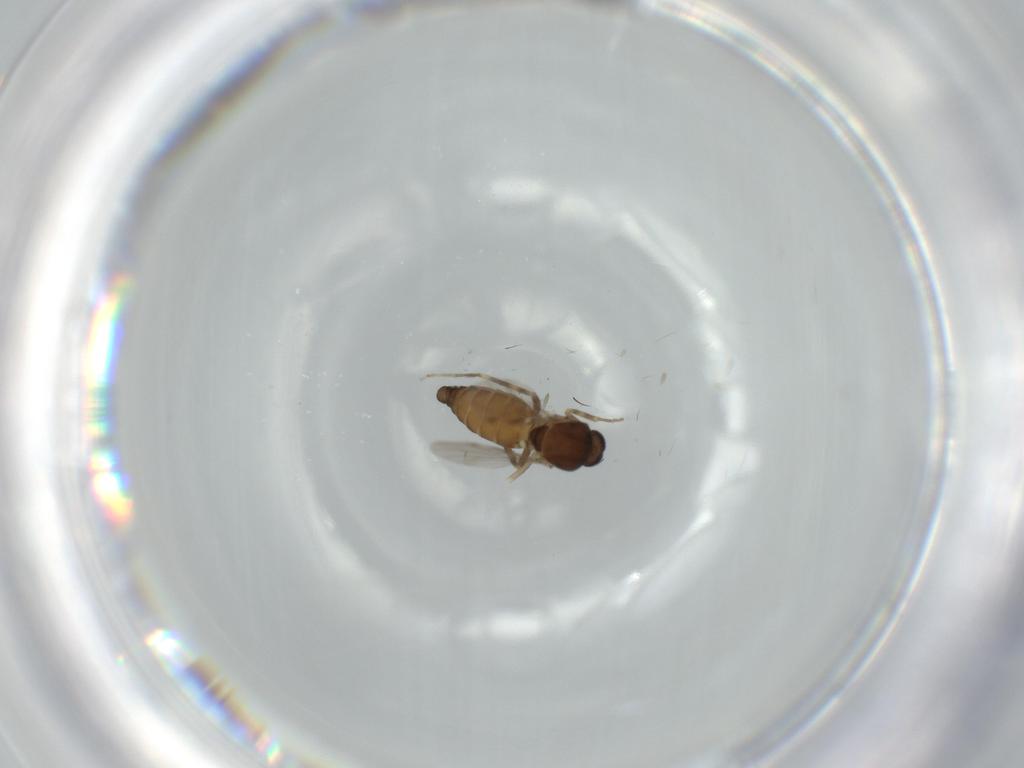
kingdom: Animalia
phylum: Arthropoda
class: Insecta
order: Diptera
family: Ceratopogonidae
